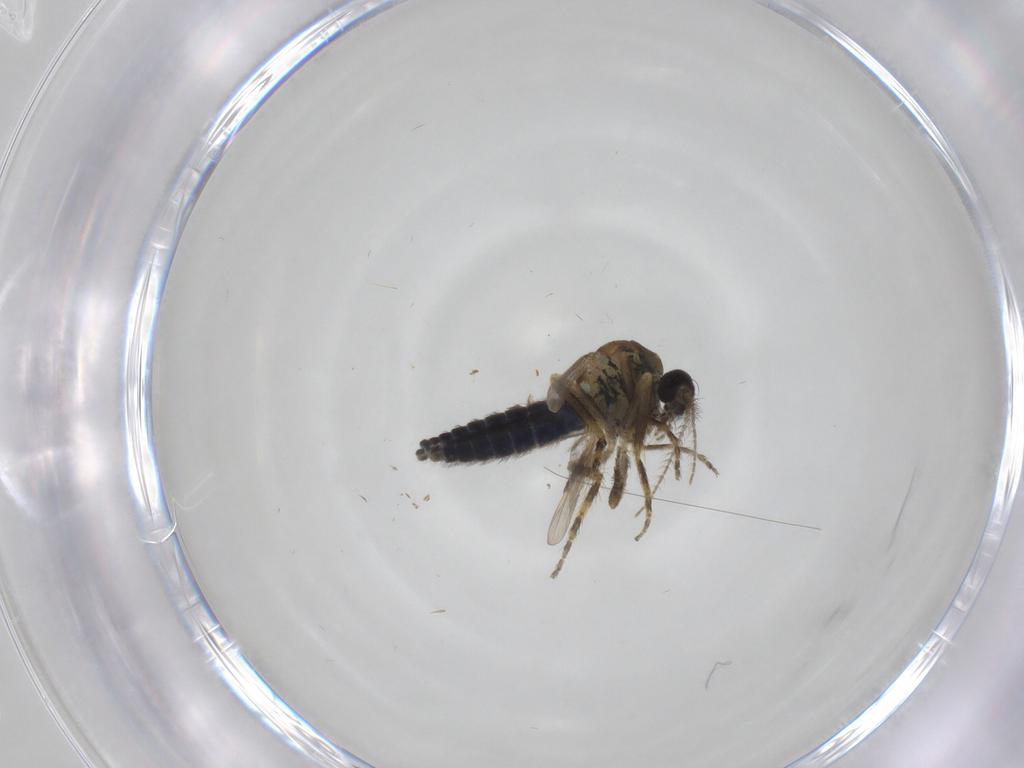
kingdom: Animalia
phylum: Arthropoda
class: Insecta
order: Diptera
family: Ceratopogonidae
